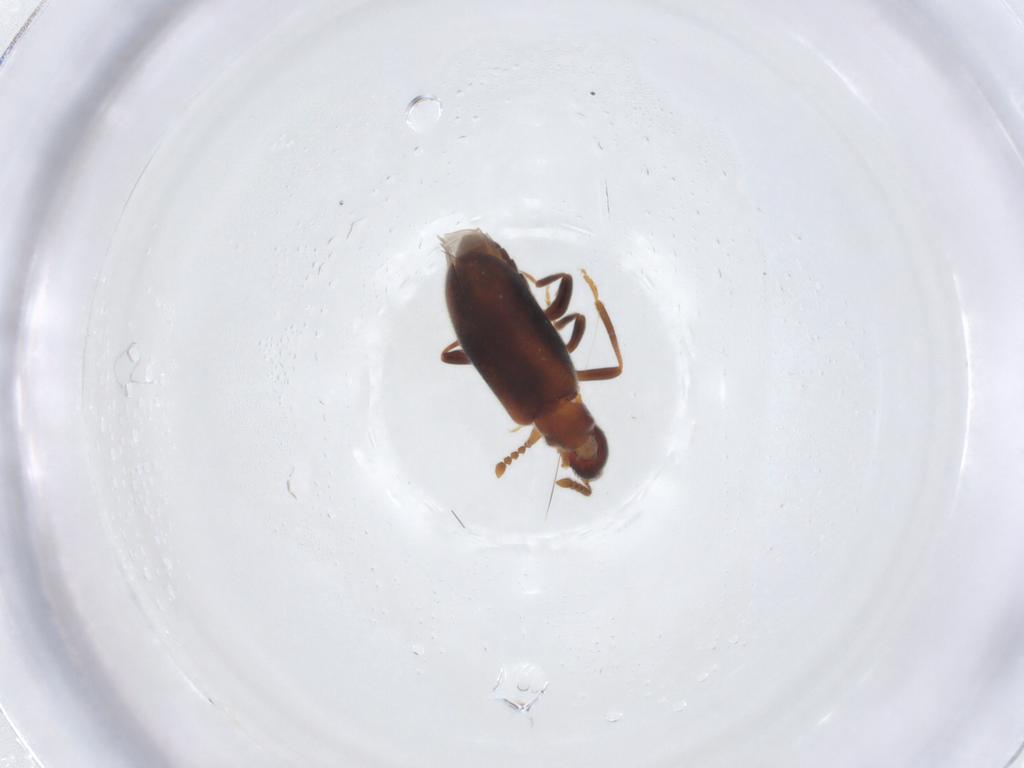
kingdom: Animalia
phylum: Arthropoda
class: Insecta
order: Coleoptera
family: Aderidae
